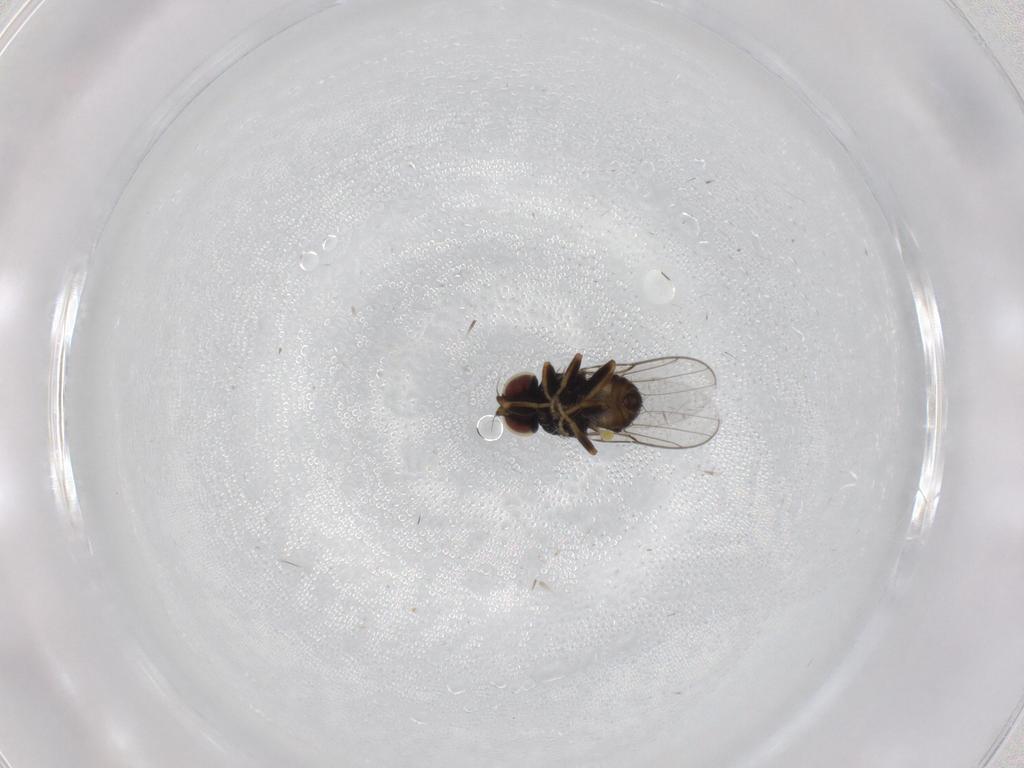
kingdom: Animalia
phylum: Arthropoda
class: Insecta
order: Diptera
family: Chloropidae
